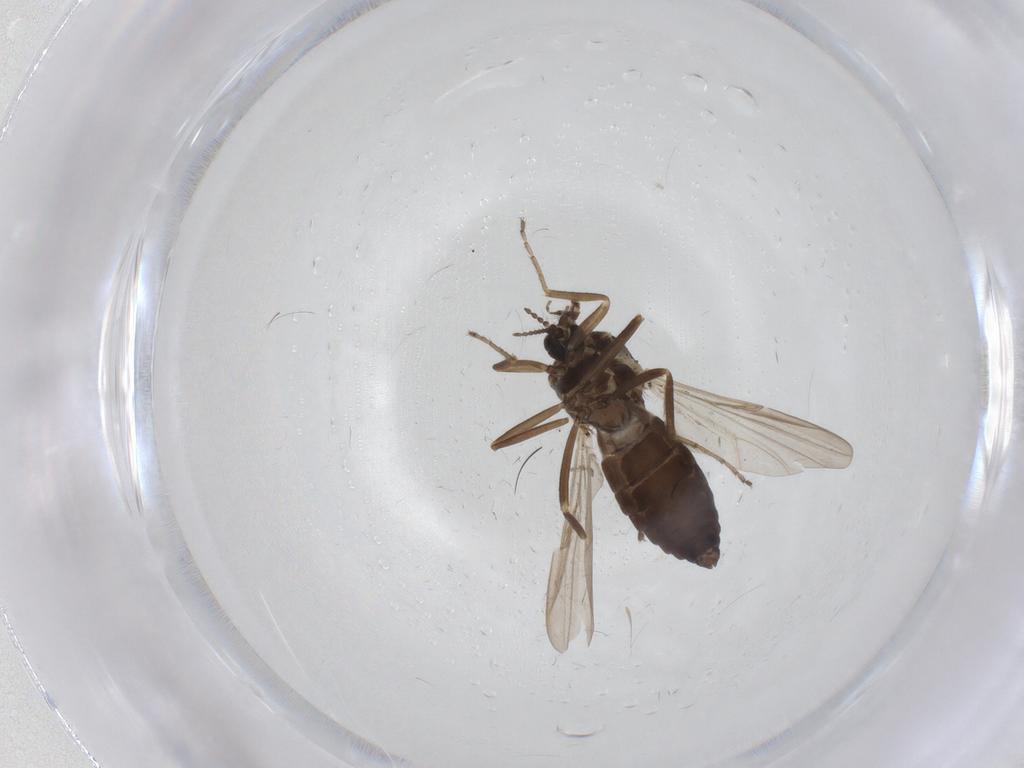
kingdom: Animalia
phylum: Arthropoda
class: Insecta
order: Diptera
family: Ceratopogonidae
